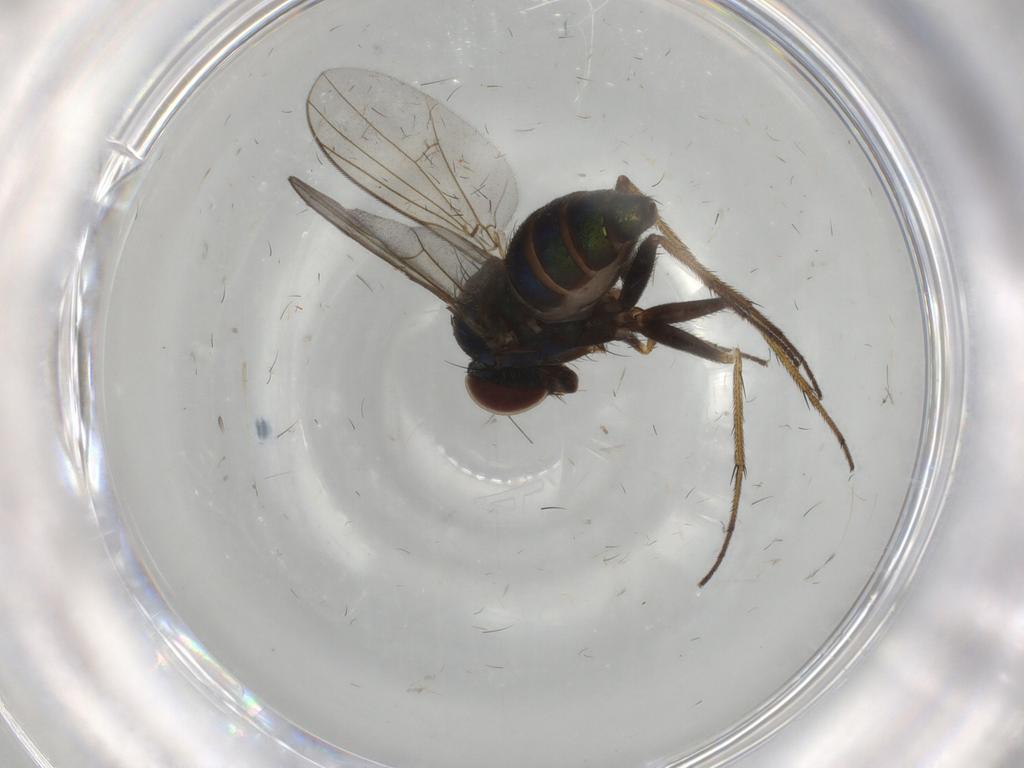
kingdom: Animalia
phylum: Arthropoda
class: Insecta
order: Diptera
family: Dolichopodidae
